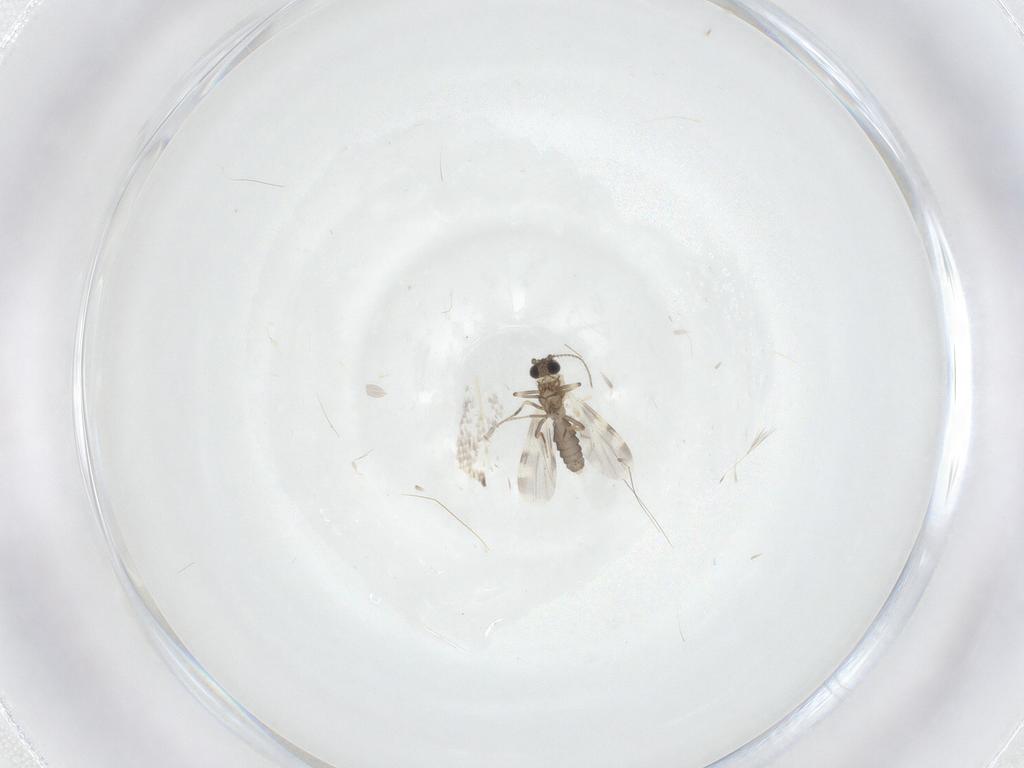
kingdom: Animalia
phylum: Arthropoda
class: Insecta
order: Diptera
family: Ceratopogonidae
